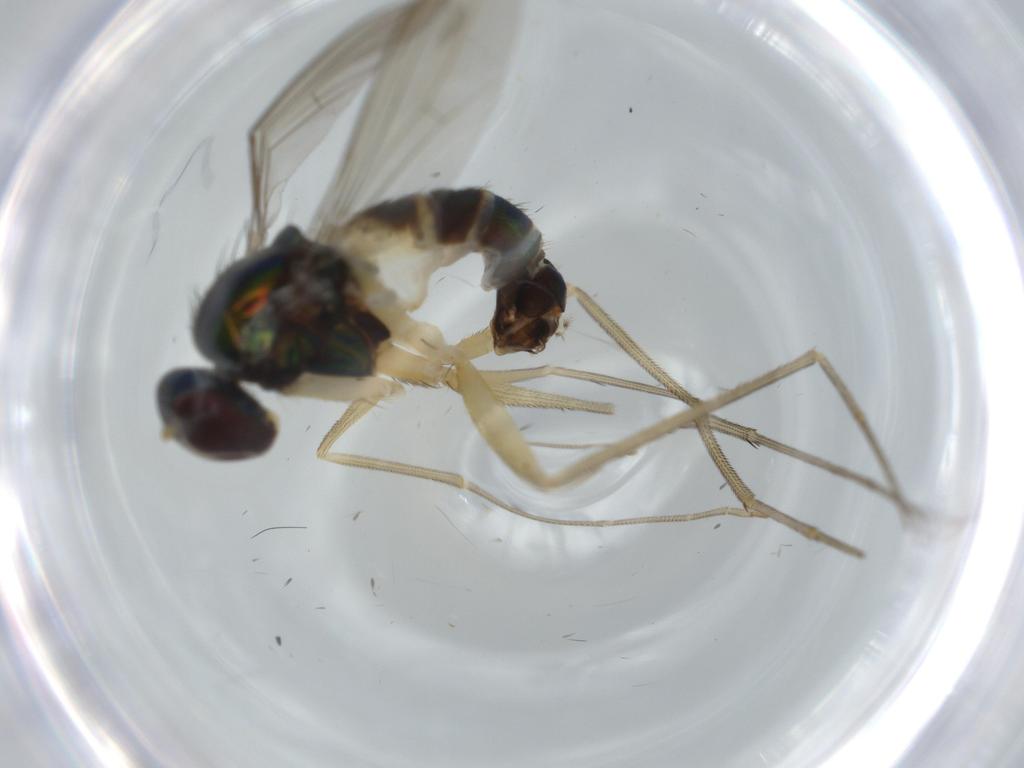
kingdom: Animalia
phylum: Arthropoda
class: Insecta
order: Diptera
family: Dolichopodidae
